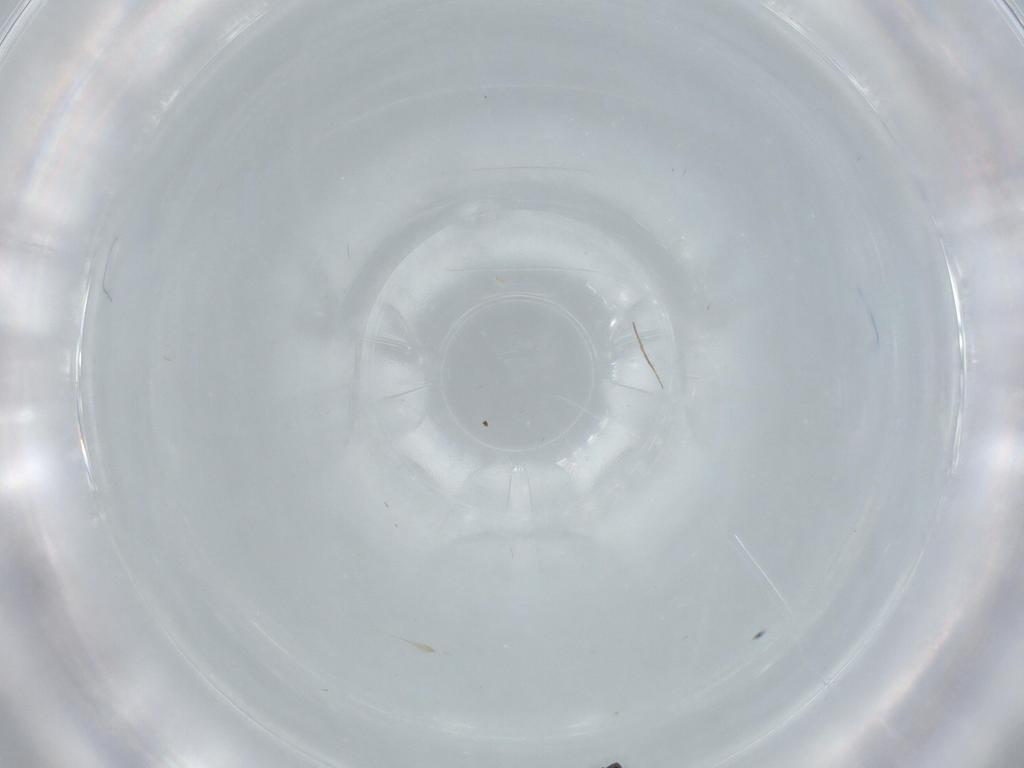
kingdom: Animalia
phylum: Arthropoda
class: Insecta
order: Diptera
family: Cecidomyiidae
